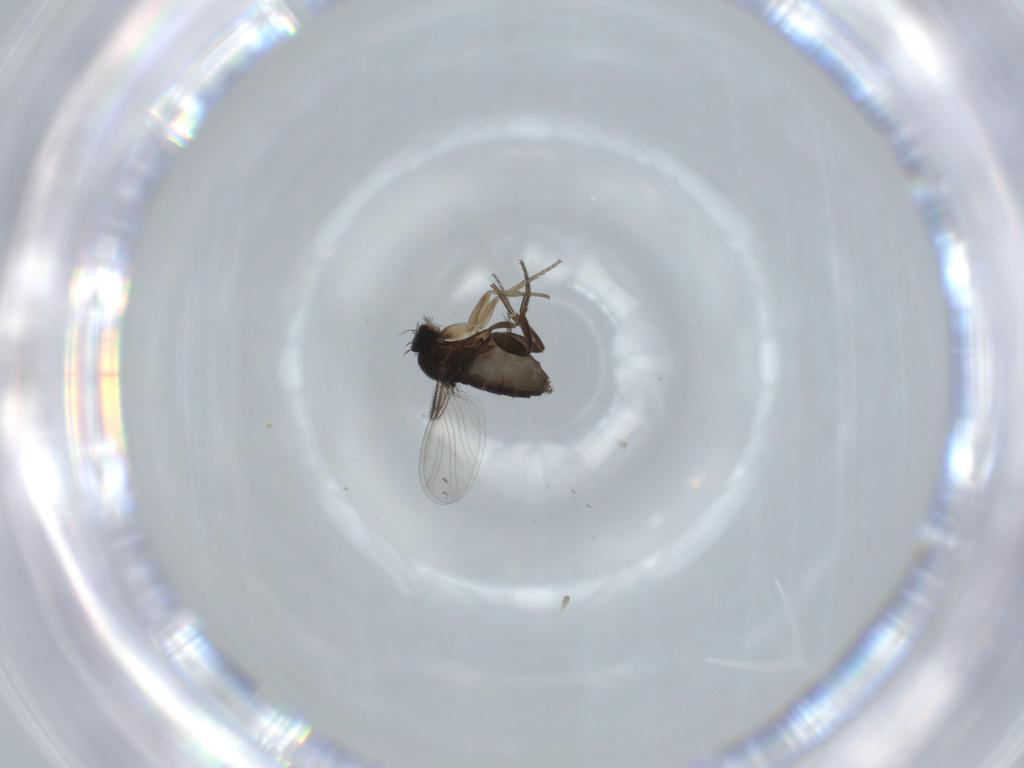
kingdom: Animalia
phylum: Arthropoda
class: Insecta
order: Diptera
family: Phoridae
